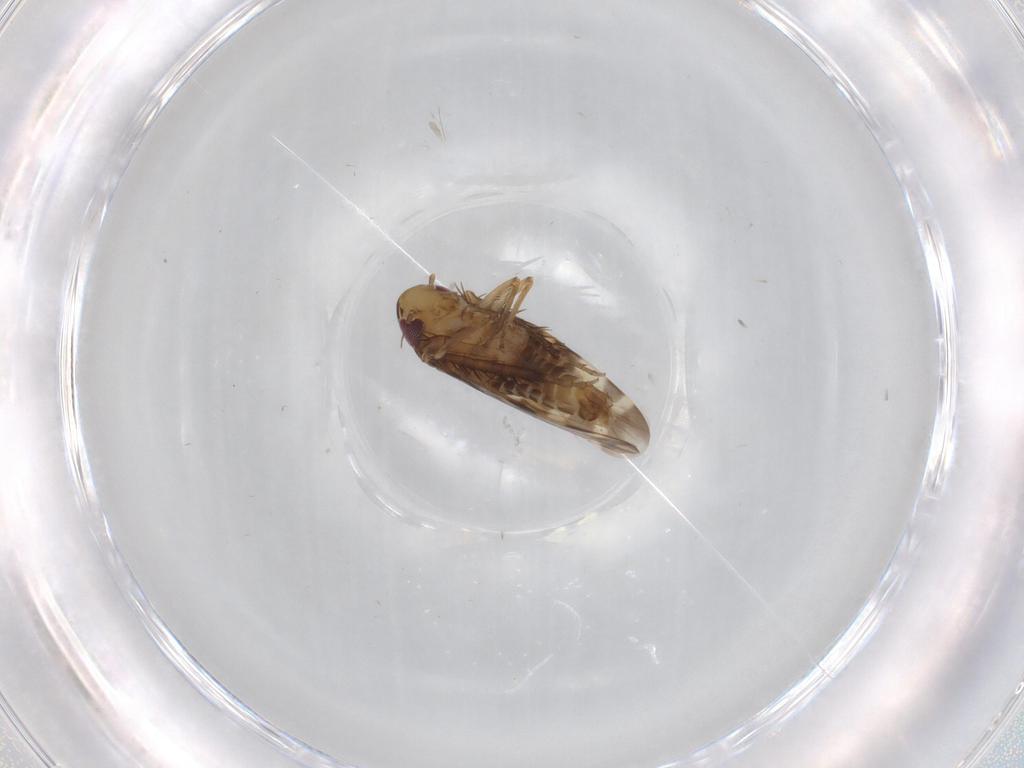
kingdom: Animalia
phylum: Arthropoda
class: Insecta
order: Hemiptera
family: Cicadellidae
